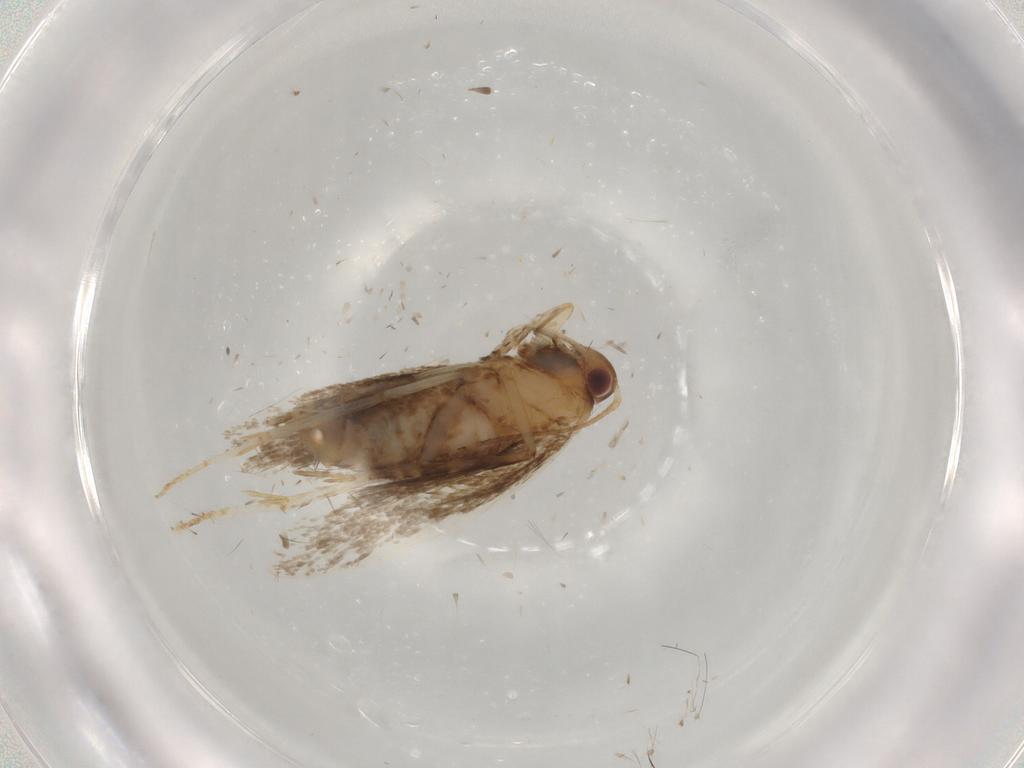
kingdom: Animalia
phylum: Arthropoda
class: Insecta
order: Lepidoptera
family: Oecophoridae
